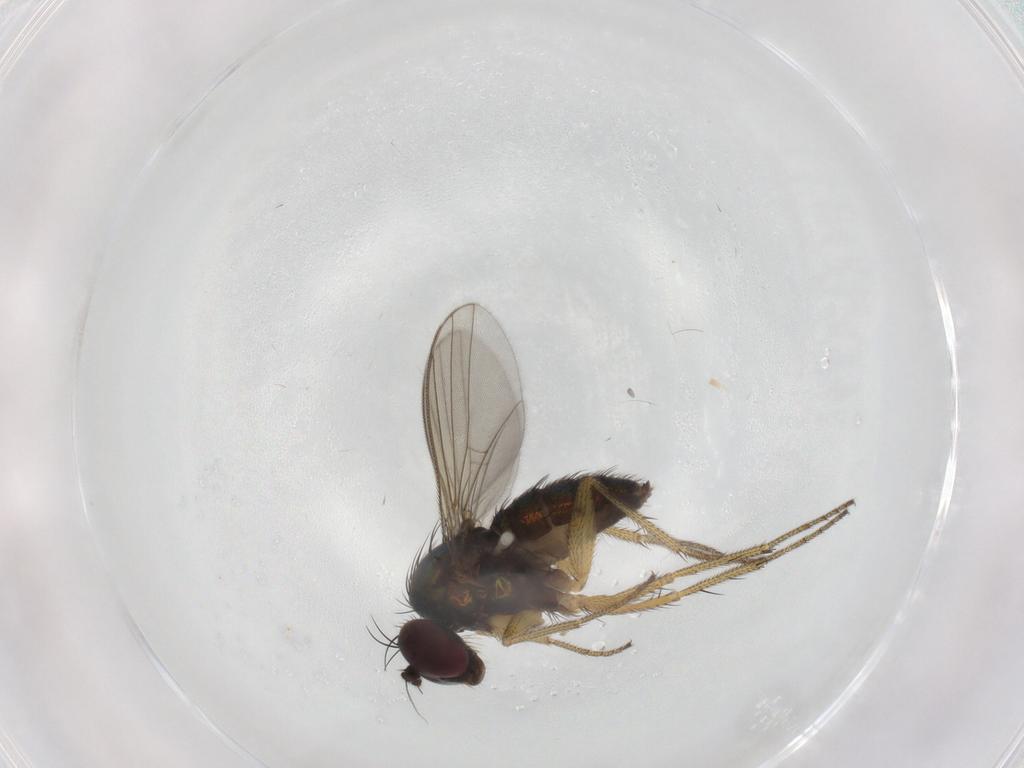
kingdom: Animalia
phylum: Arthropoda
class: Insecta
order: Diptera
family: Dolichopodidae
